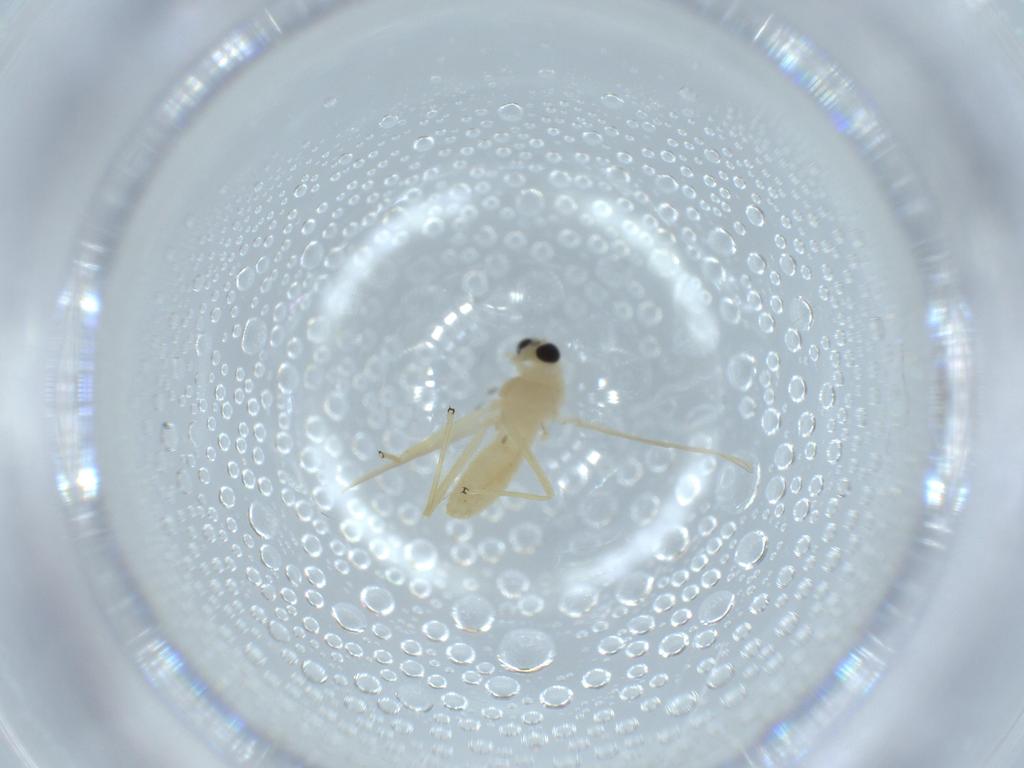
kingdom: Animalia
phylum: Arthropoda
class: Insecta
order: Diptera
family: Chironomidae
